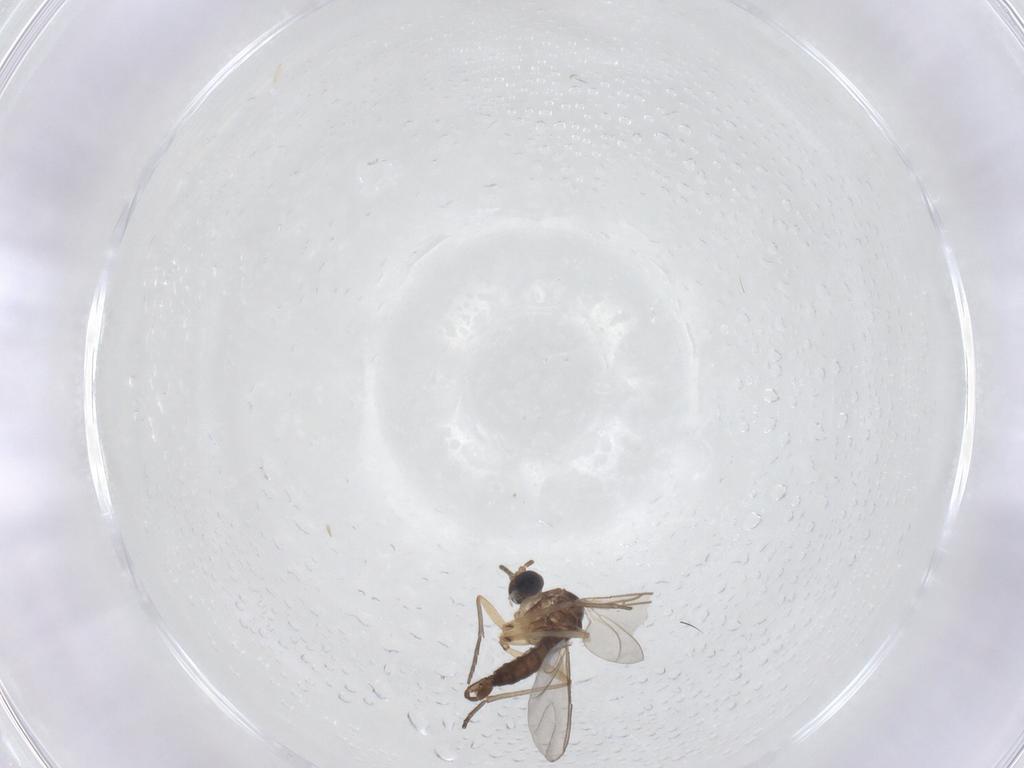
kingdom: Animalia
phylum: Arthropoda
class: Insecta
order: Diptera
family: Sciaridae
